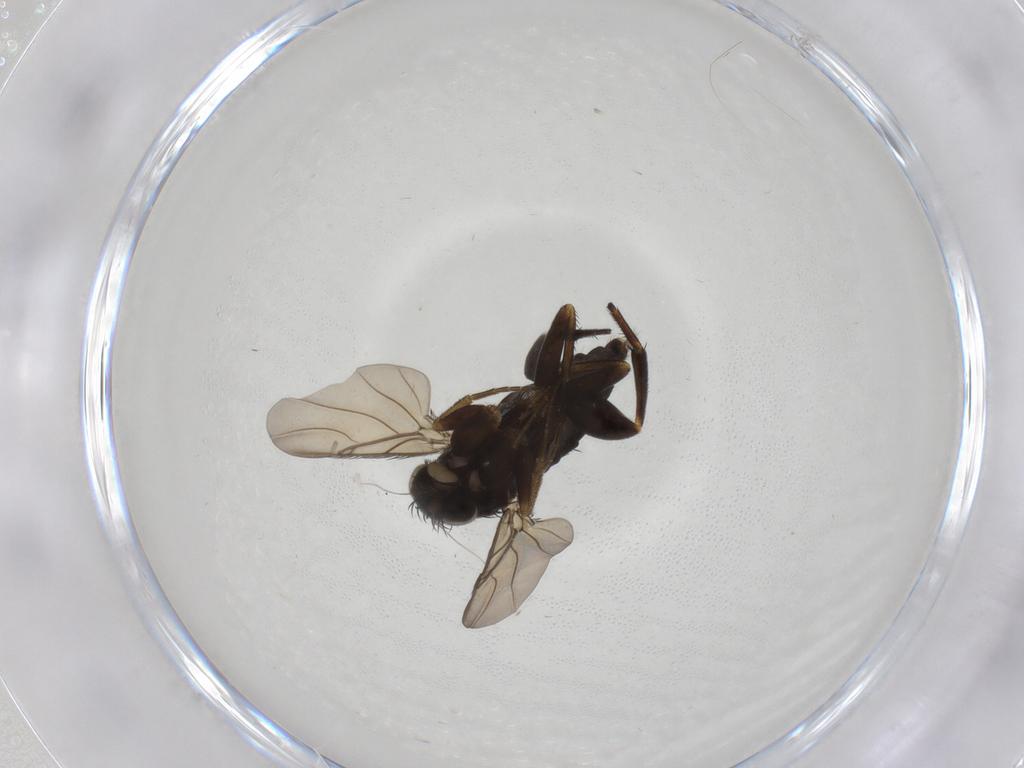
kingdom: Animalia
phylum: Arthropoda
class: Insecta
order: Diptera
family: Phoridae
